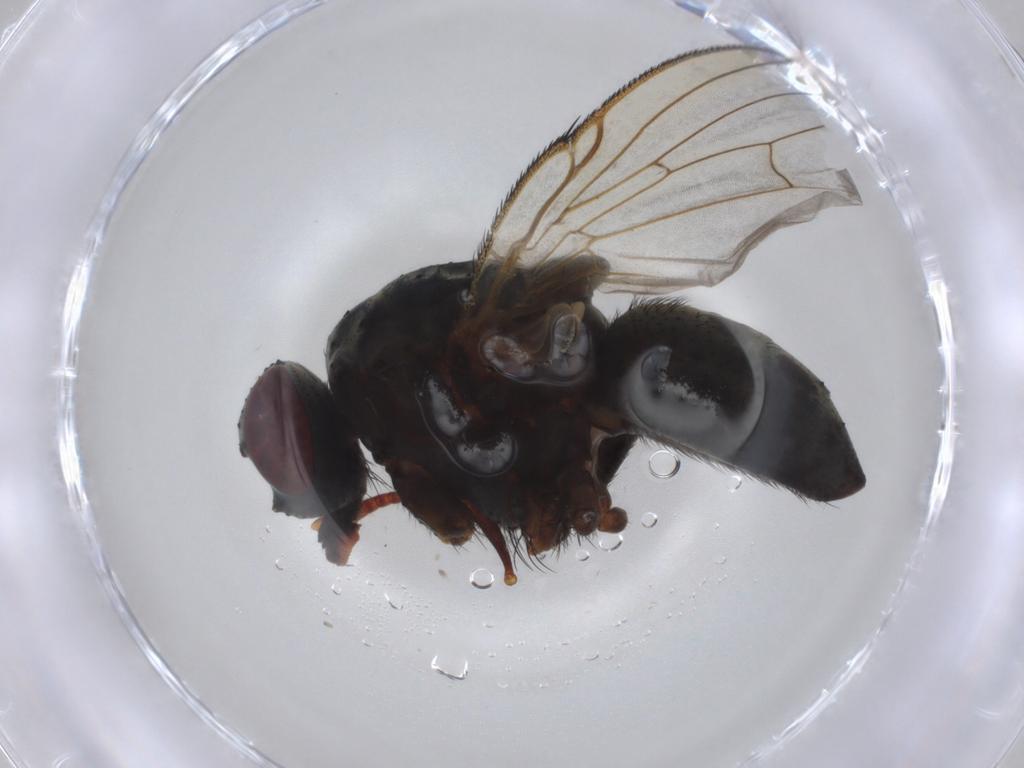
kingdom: Animalia
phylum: Arthropoda
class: Insecta
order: Diptera
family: Muscidae
